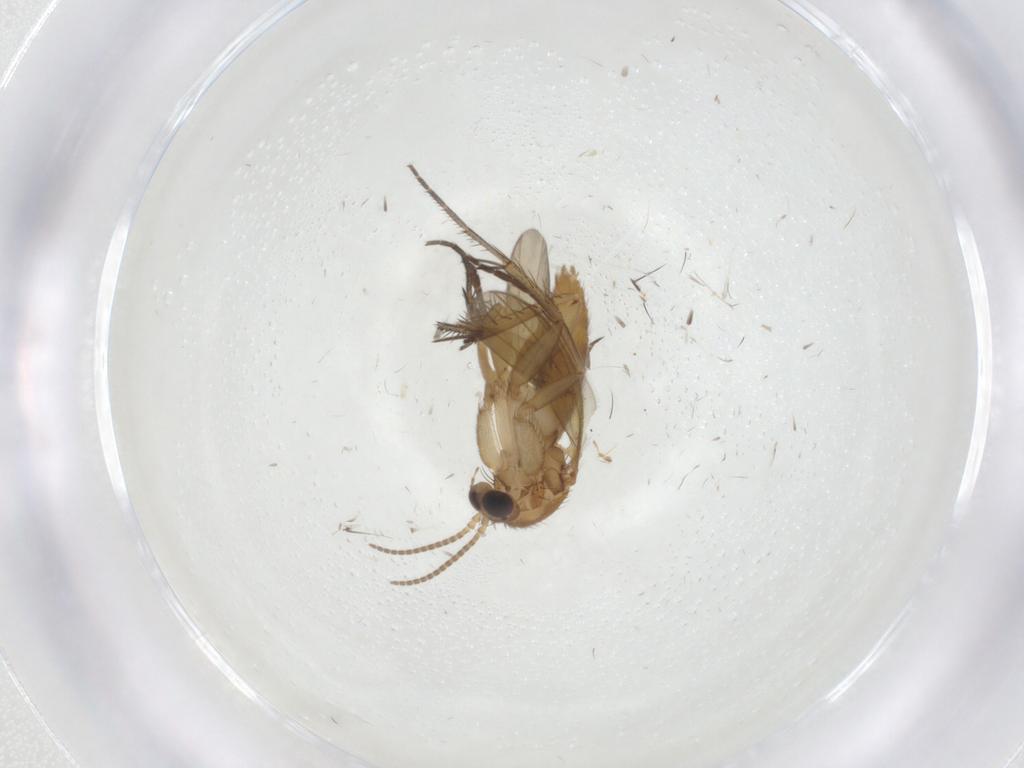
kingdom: Animalia
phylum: Arthropoda
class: Insecta
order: Diptera
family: Mycetophilidae
